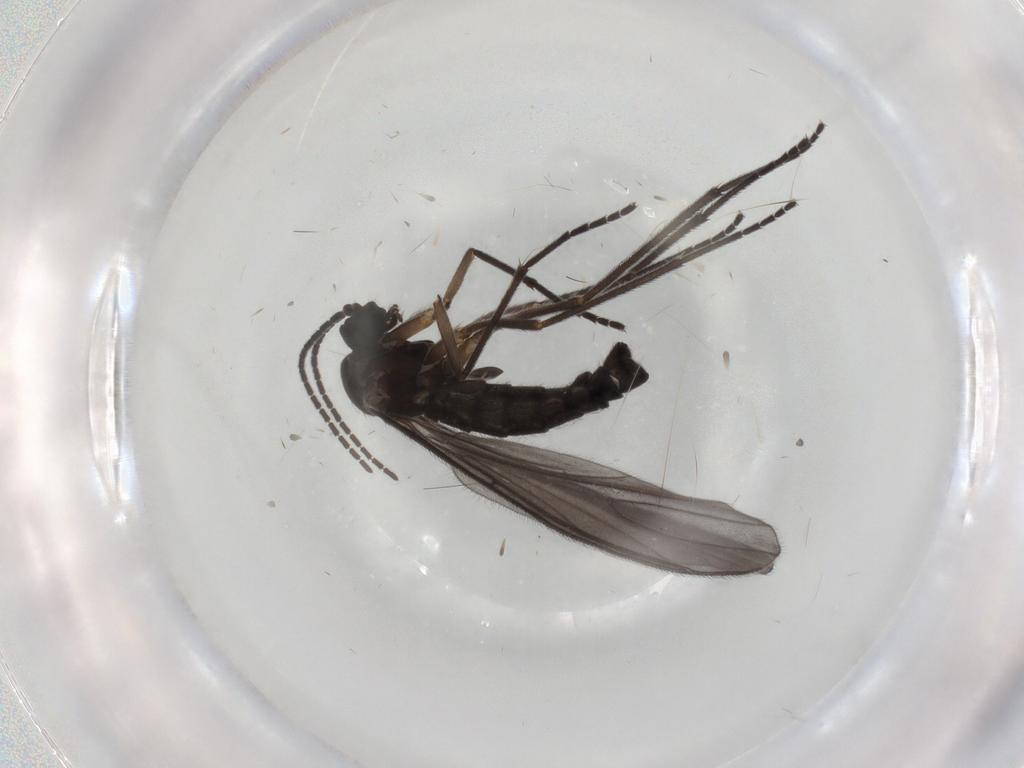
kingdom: Animalia
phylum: Arthropoda
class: Insecta
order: Diptera
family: Sciaridae
